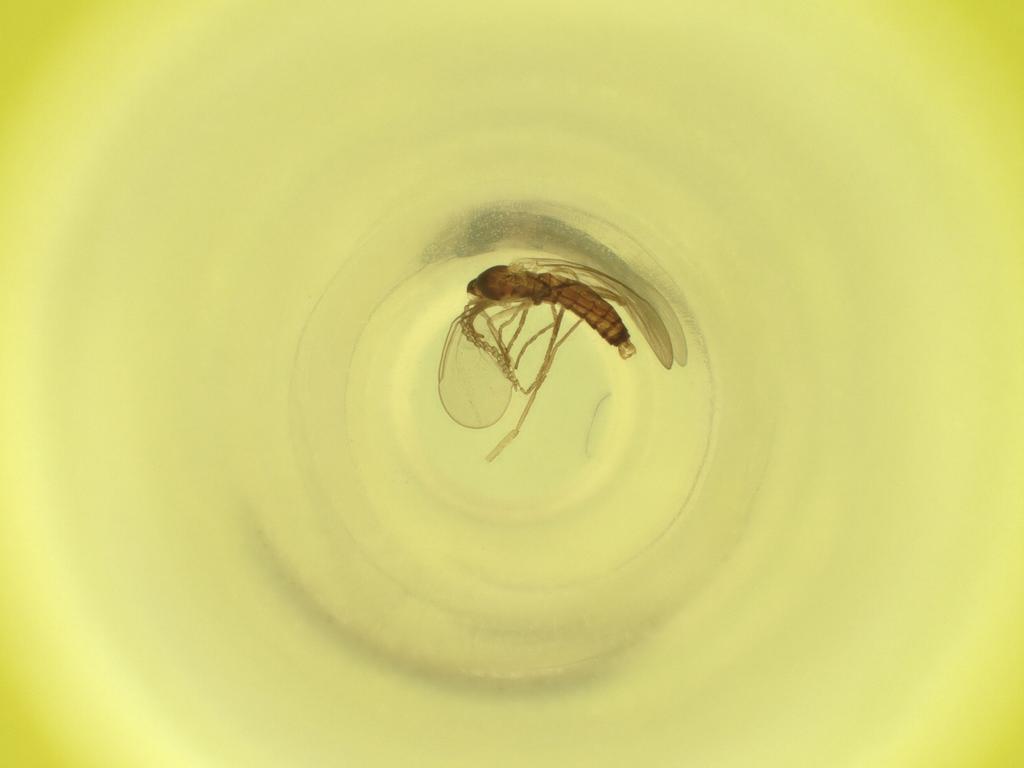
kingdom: Animalia
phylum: Arthropoda
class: Insecta
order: Diptera
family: Cecidomyiidae
